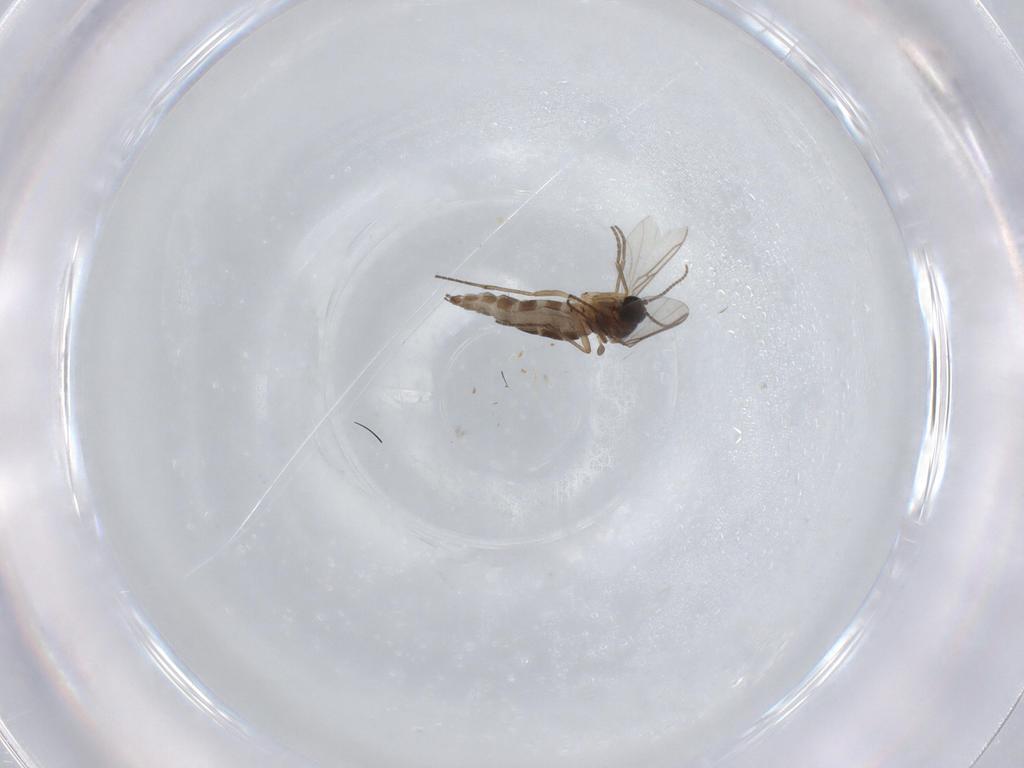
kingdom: Animalia
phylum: Arthropoda
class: Insecta
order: Diptera
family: Sciaridae
